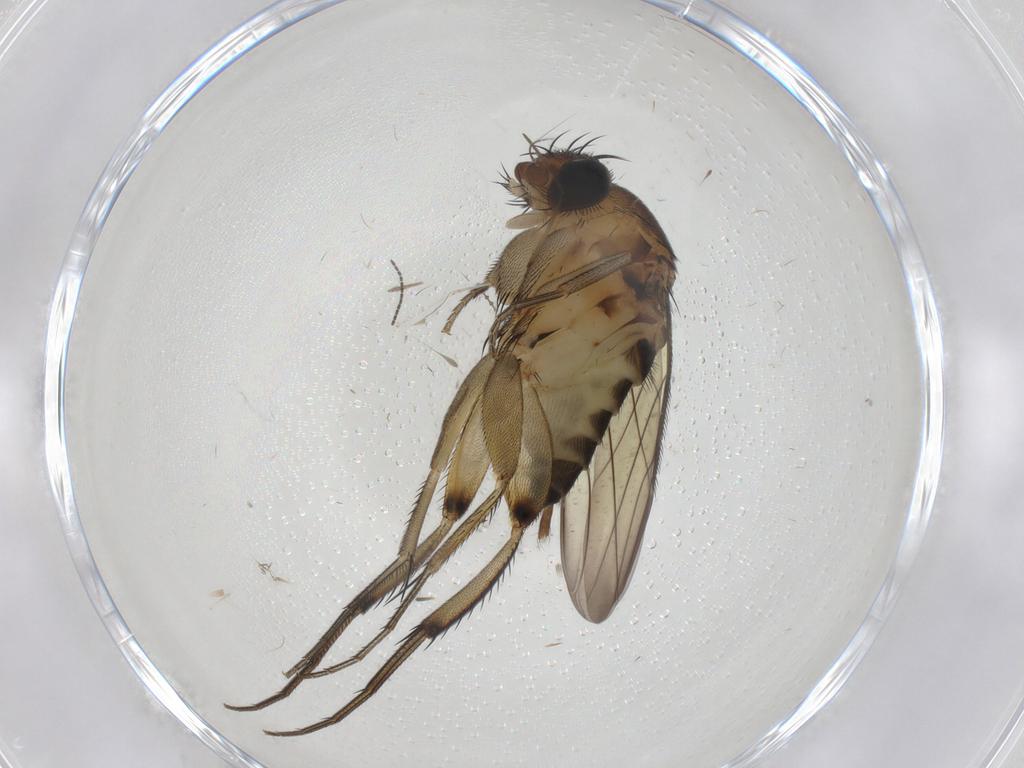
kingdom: Animalia
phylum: Arthropoda
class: Insecta
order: Diptera
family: Phoridae
